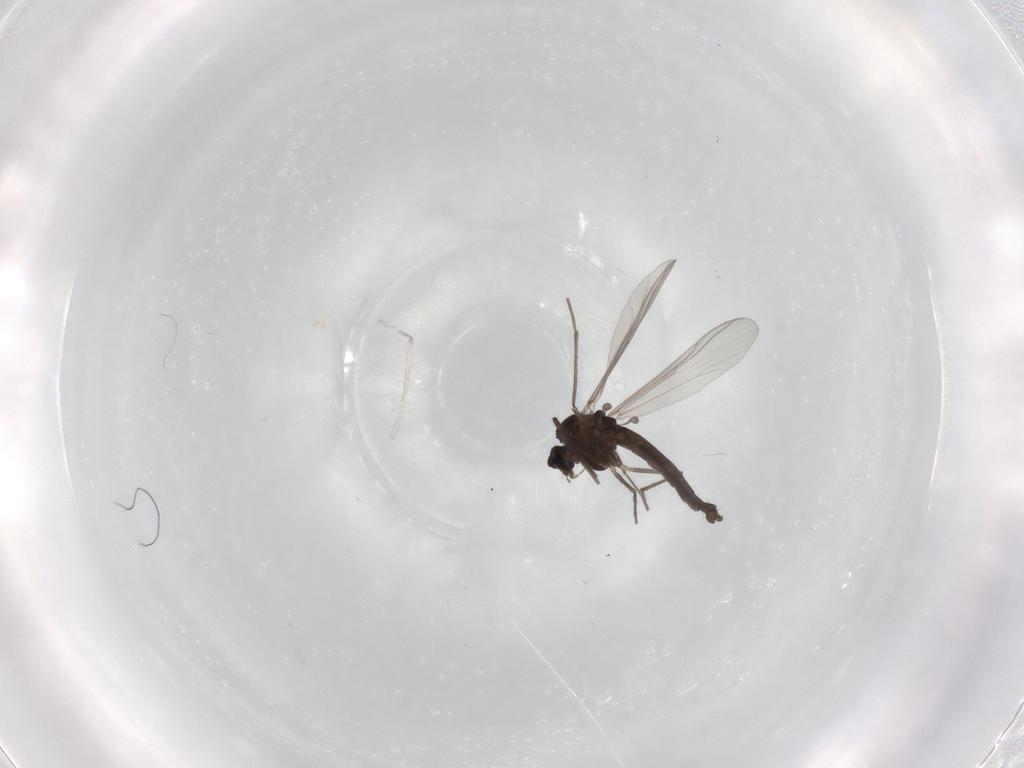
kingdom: Animalia
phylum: Arthropoda
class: Insecta
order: Diptera
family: Chironomidae
